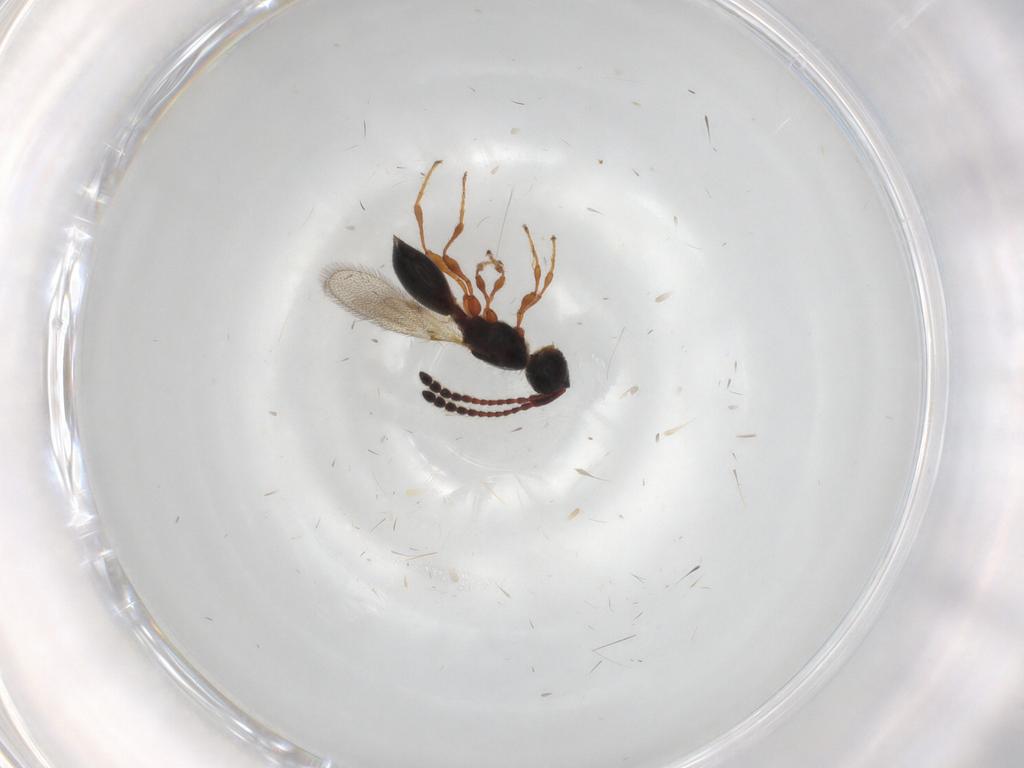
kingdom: Animalia
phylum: Arthropoda
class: Insecta
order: Hymenoptera
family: Diapriidae
